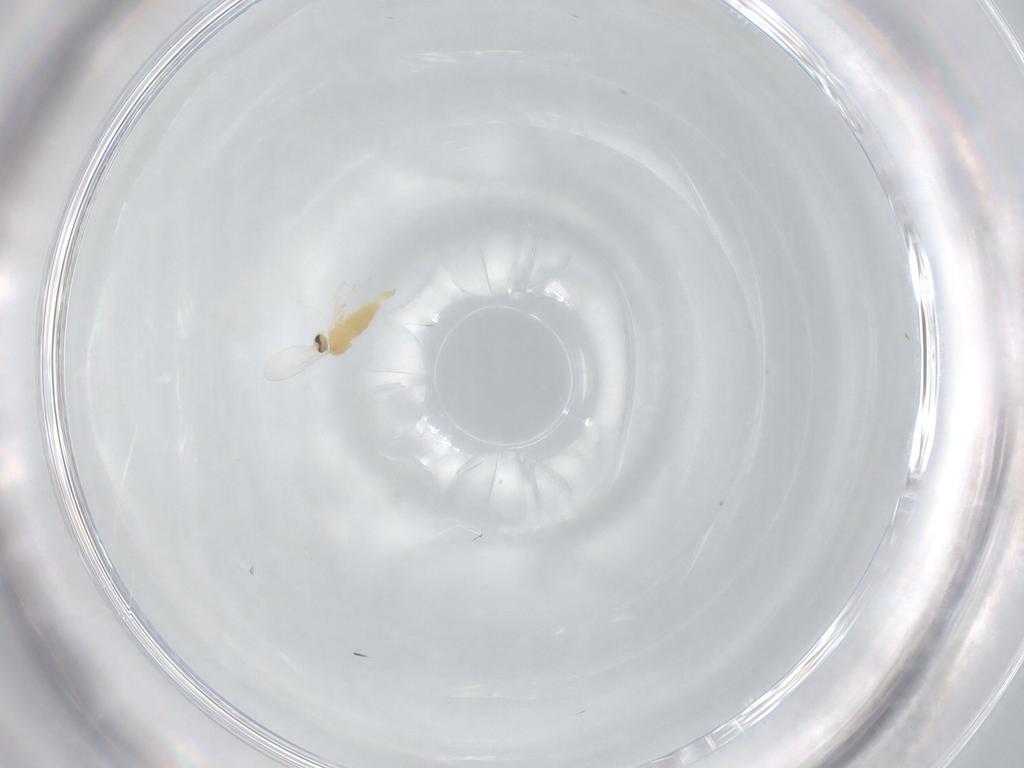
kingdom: Animalia
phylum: Arthropoda
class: Insecta
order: Diptera
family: Cecidomyiidae
